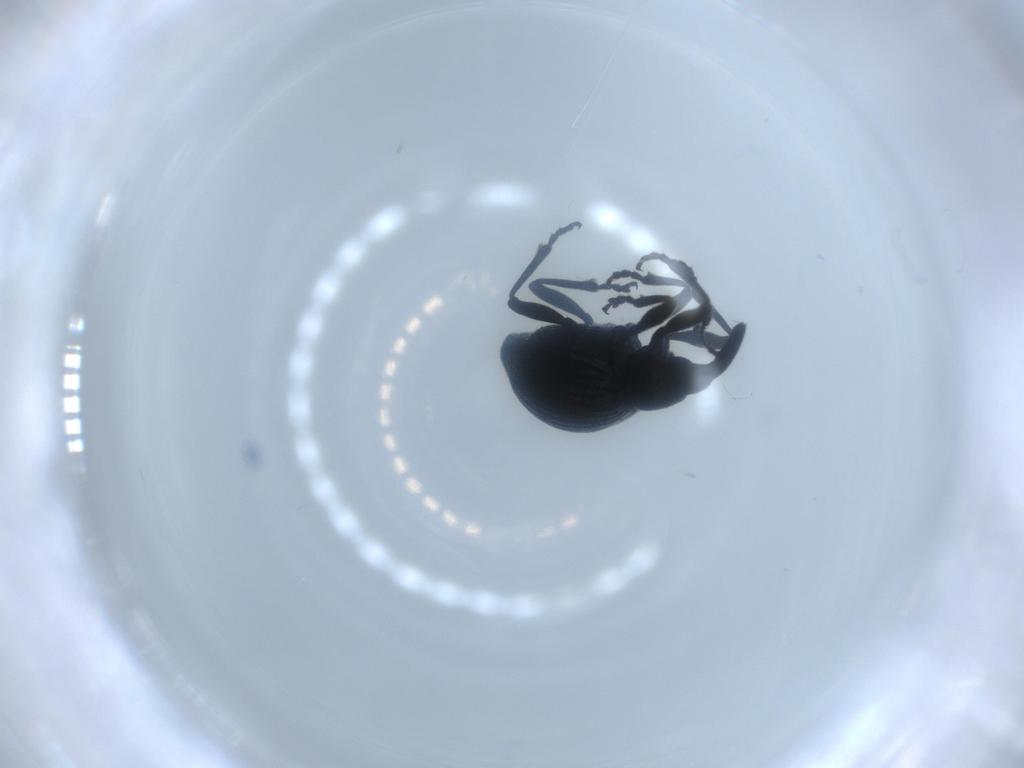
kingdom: Animalia
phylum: Arthropoda
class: Insecta
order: Coleoptera
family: Brentidae
